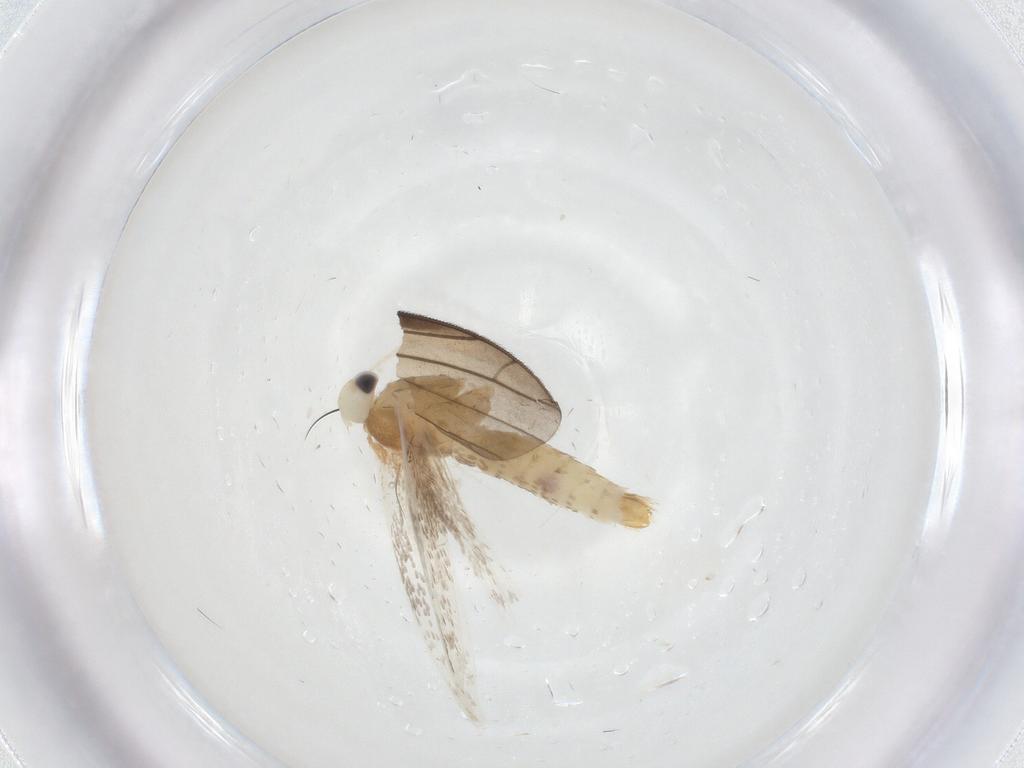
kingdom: Animalia
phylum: Arthropoda
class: Insecta
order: Lepidoptera
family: Gracillariidae
